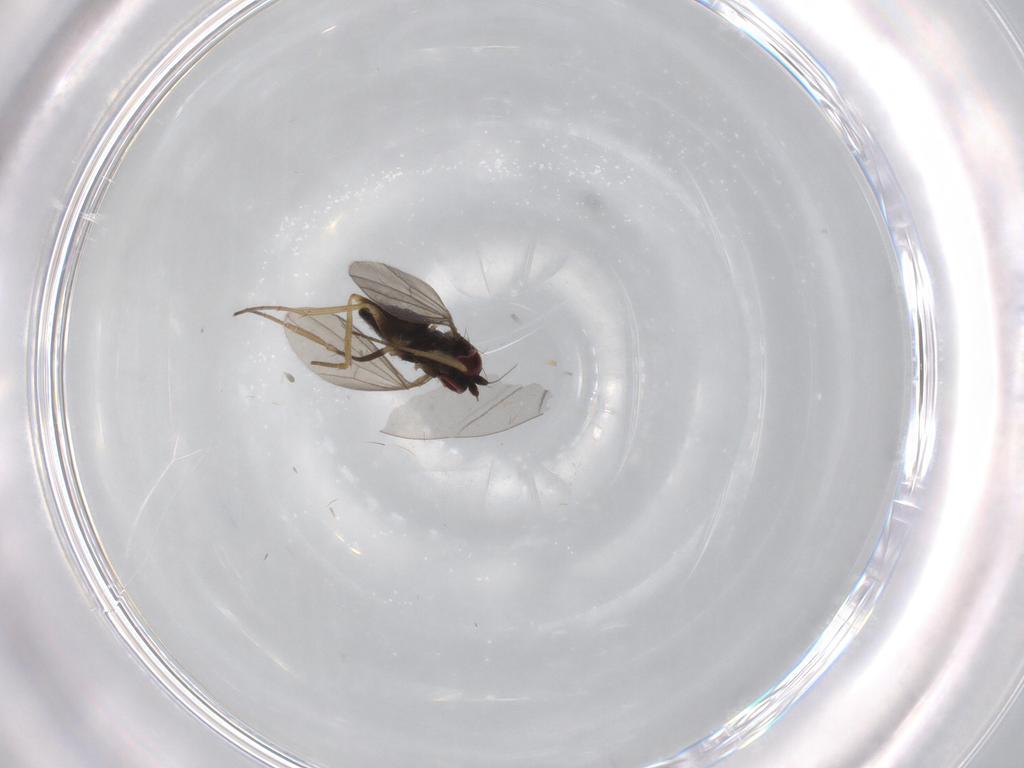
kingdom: Animalia
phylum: Arthropoda
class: Insecta
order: Diptera
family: Dolichopodidae
